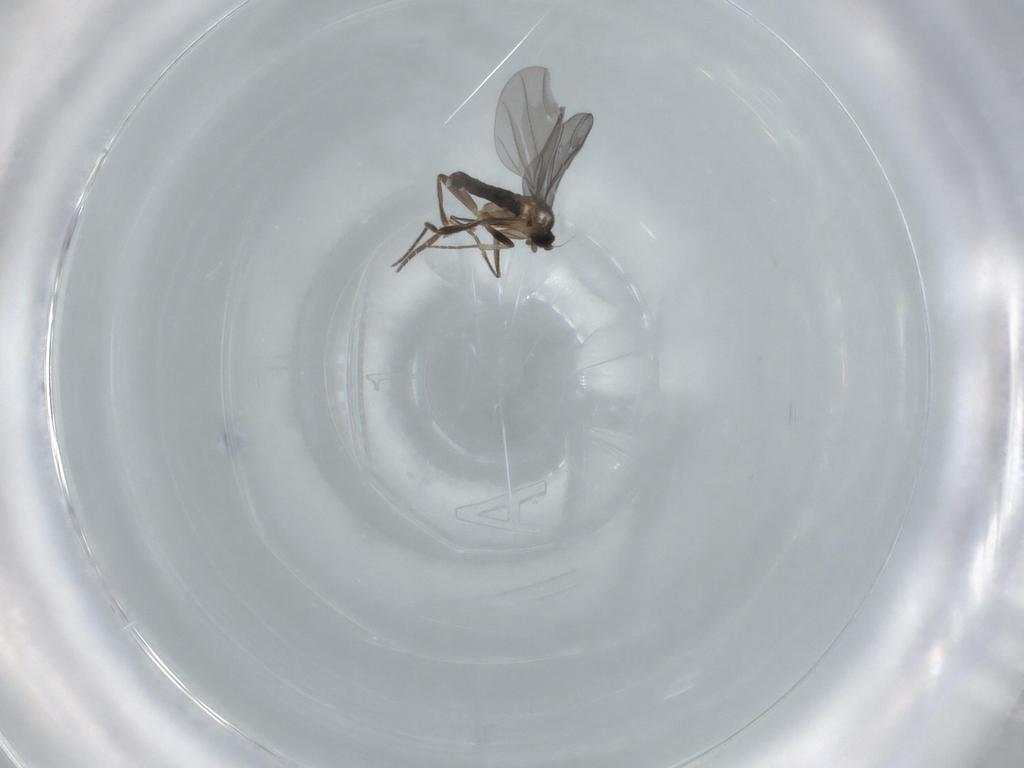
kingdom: Animalia
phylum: Arthropoda
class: Insecta
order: Diptera
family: Phoridae
